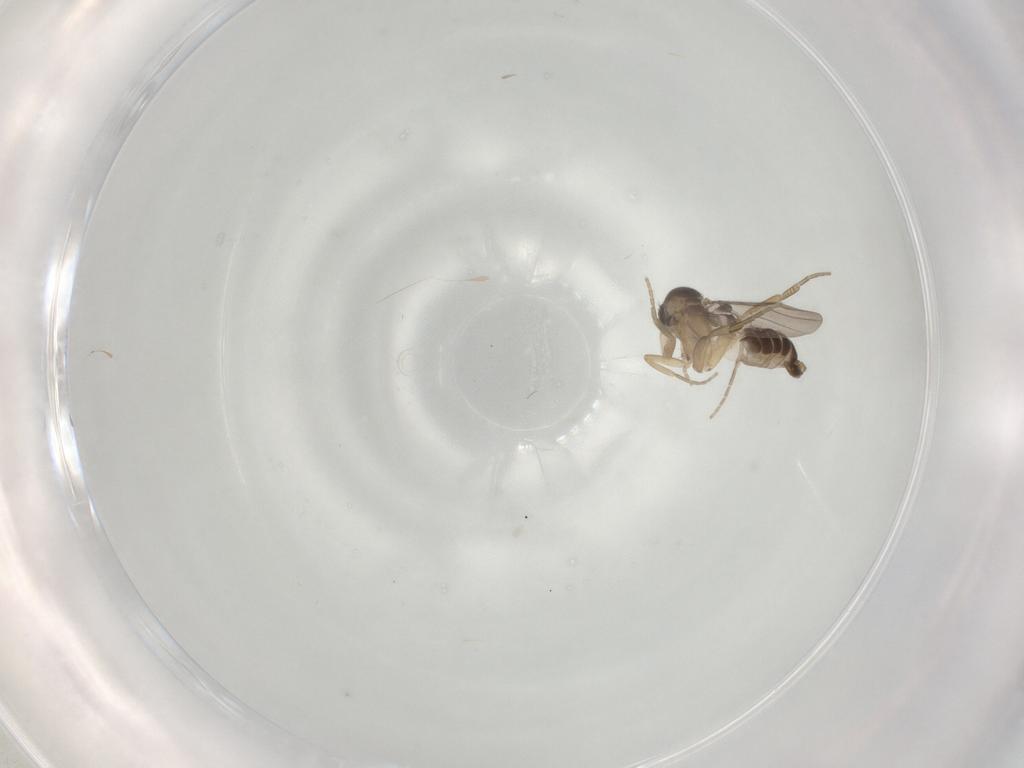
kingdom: Animalia
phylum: Arthropoda
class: Insecta
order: Diptera
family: Phoridae
